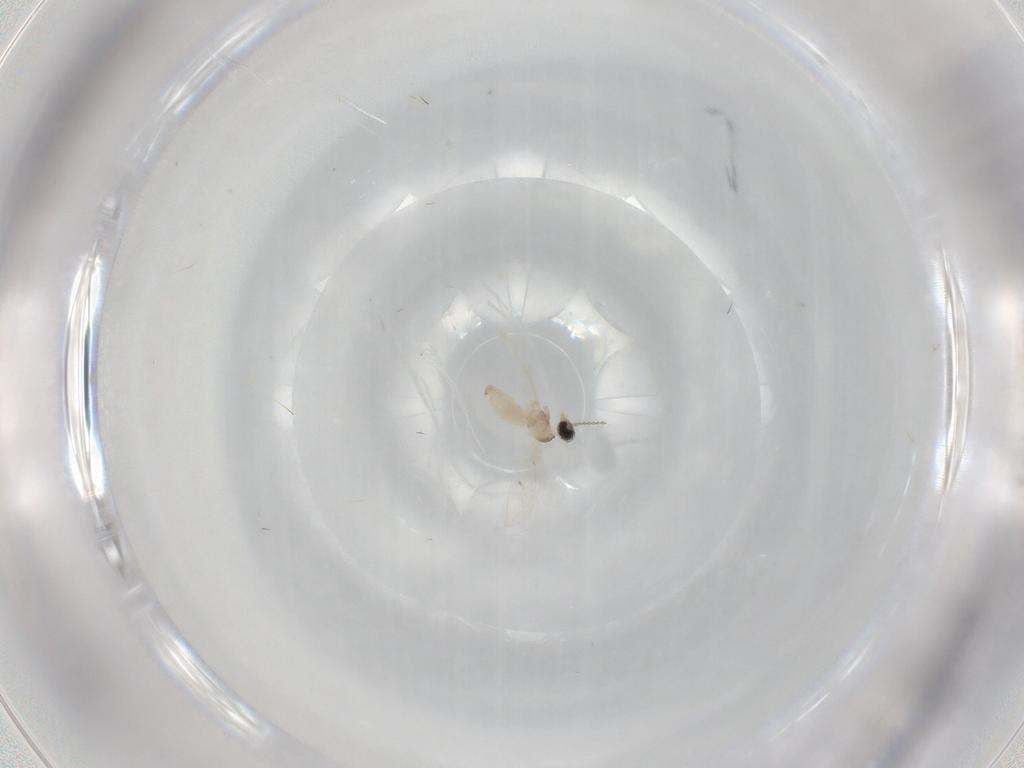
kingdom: Animalia
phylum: Arthropoda
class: Insecta
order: Diptera
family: Cecidomyiidae
